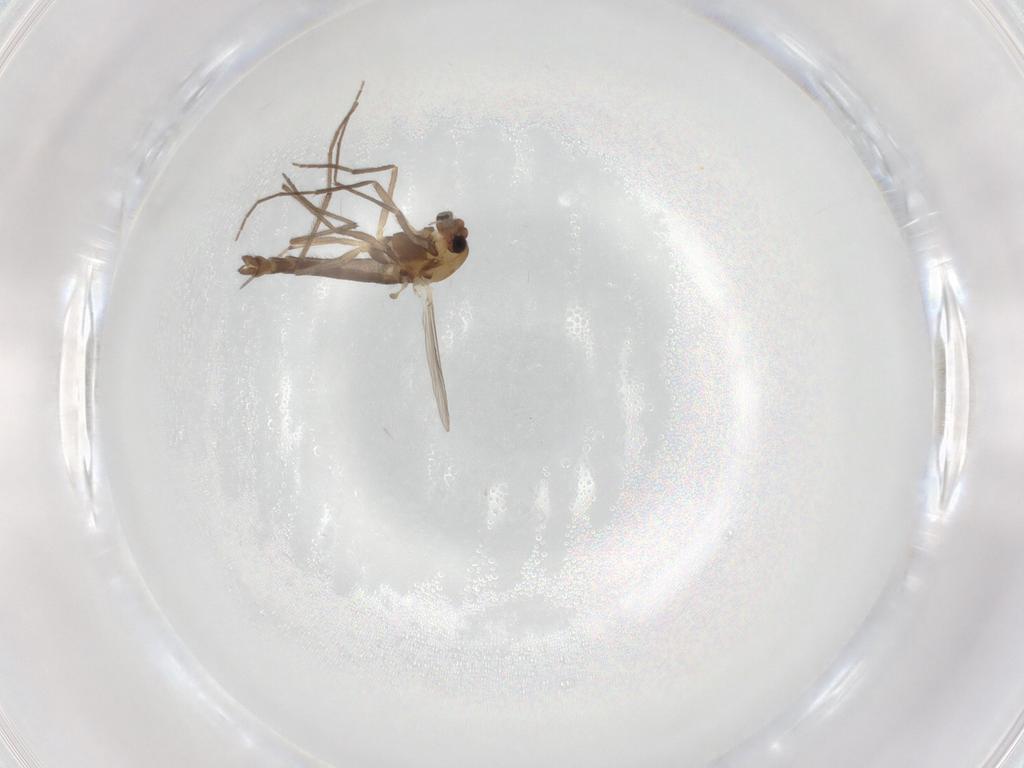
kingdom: Animalia
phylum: Arthropoda
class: Insecta
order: Diptera
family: Chironomidae
